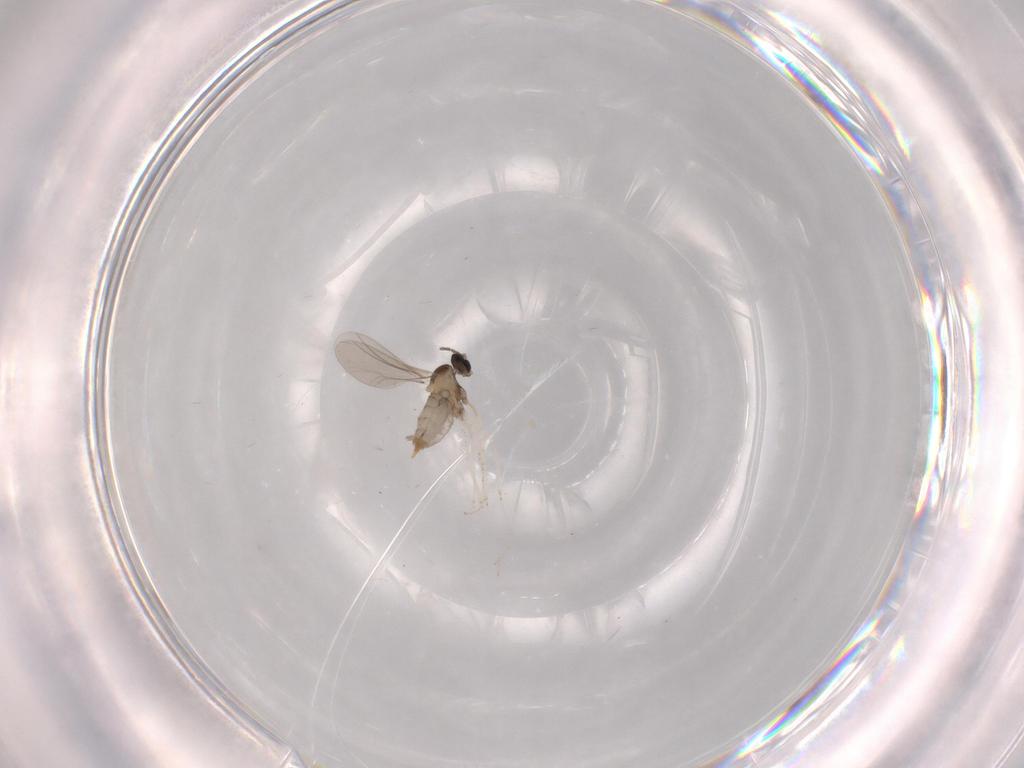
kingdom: Animalia
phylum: Arthropoda
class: Insecta
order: Diptera
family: Cecidomyiidae
